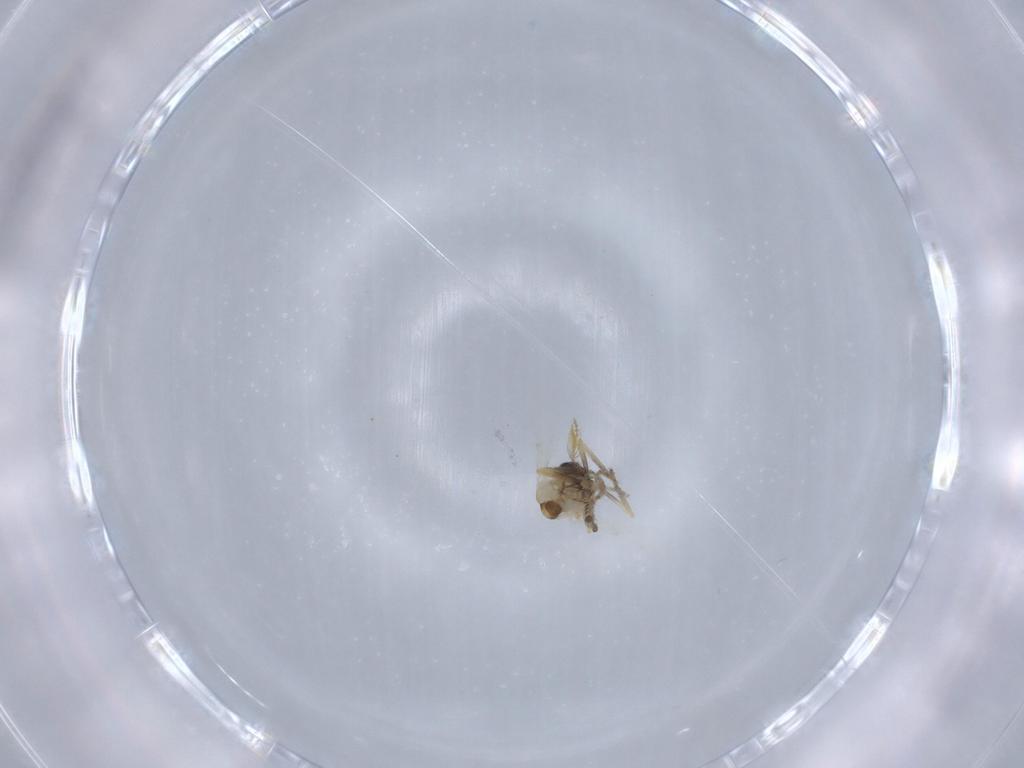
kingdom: Animalia
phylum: Arthropoda
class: Insecta
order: Diptera
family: Ceratopogonidae
